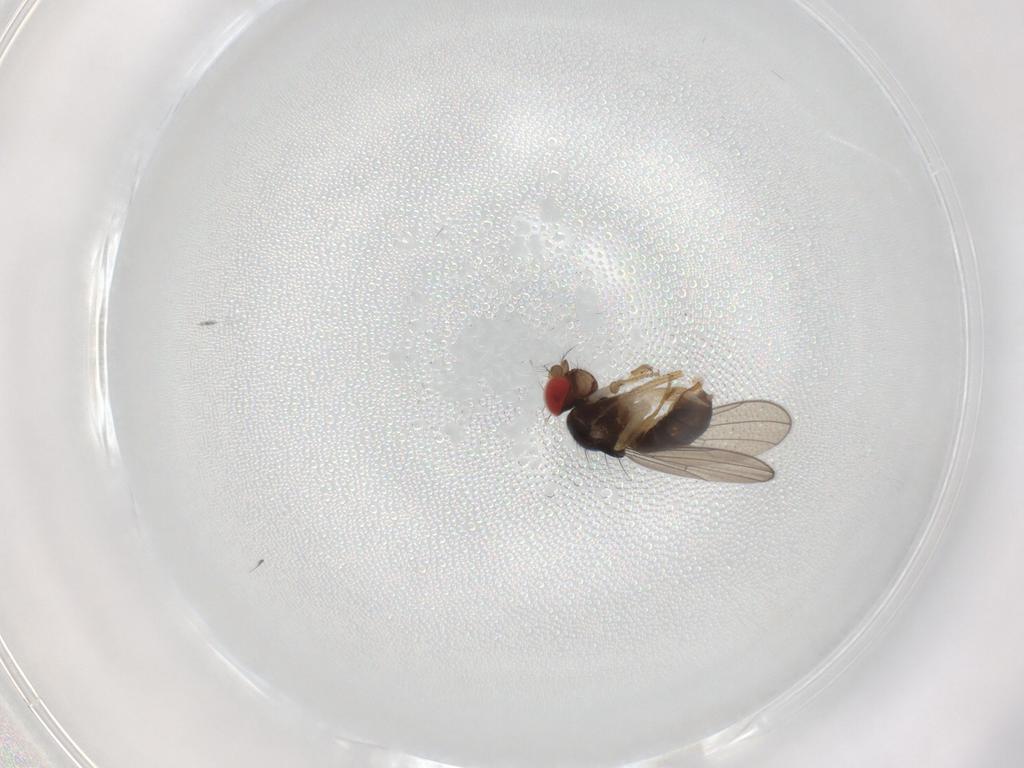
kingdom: Animalia
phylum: Arthropoda
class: Insecta
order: Diptera
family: Drosophilidae
